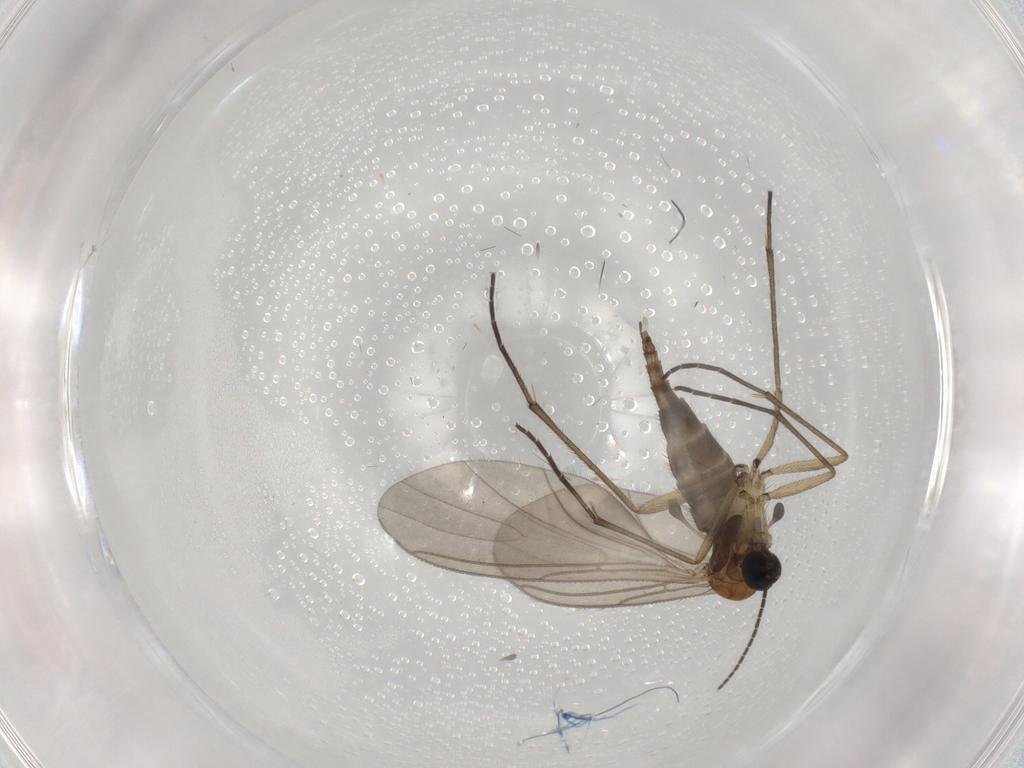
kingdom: Animalia
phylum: Arthropoda
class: Insecta
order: Diptera
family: Sciaridae
